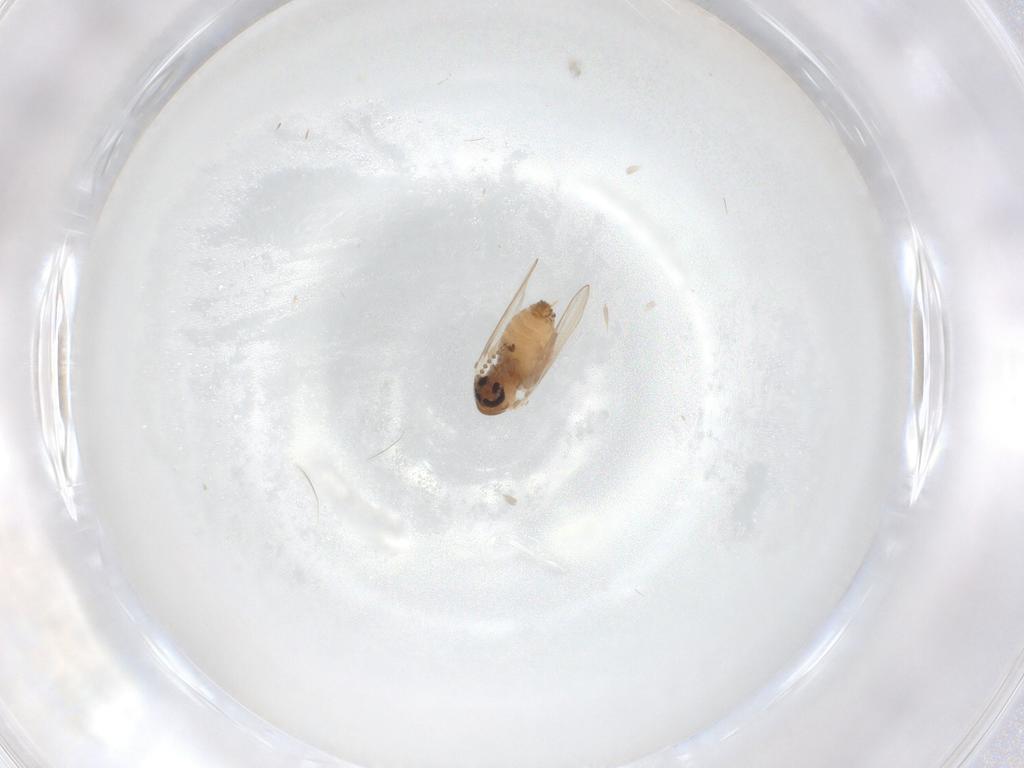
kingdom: Animalia
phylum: Arthropoda
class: Insecta
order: Diptera
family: Psychodidae
